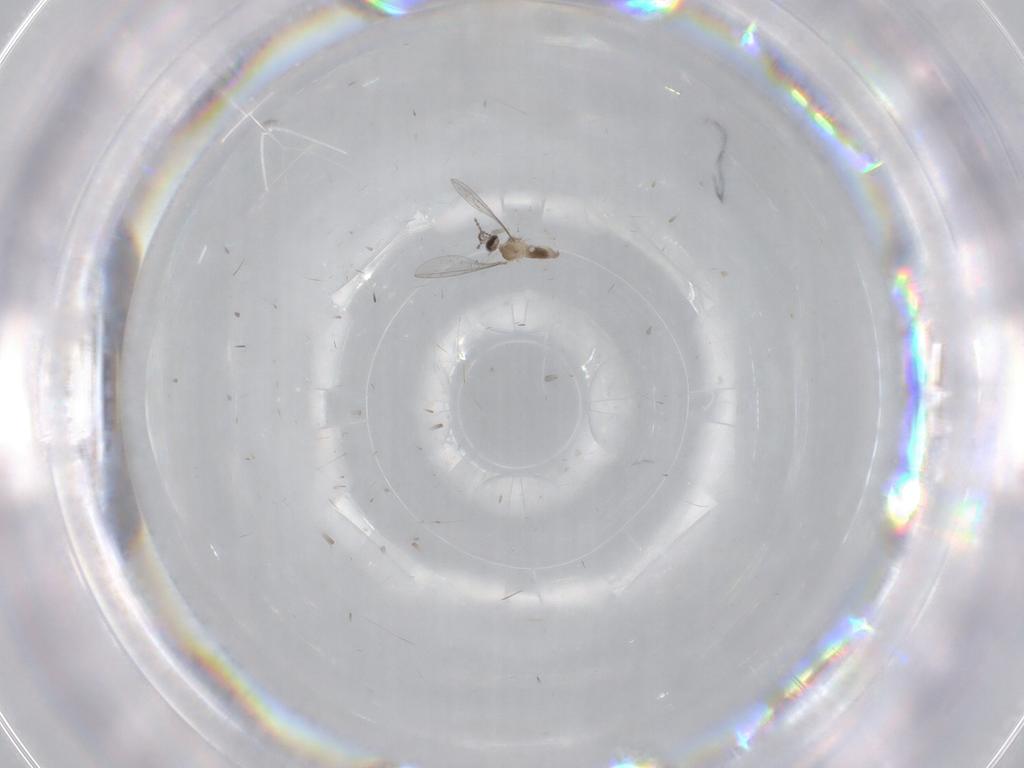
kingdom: Animalia
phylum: Arthropoda
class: Insecta
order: Diptera
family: Cecidomyiidae
